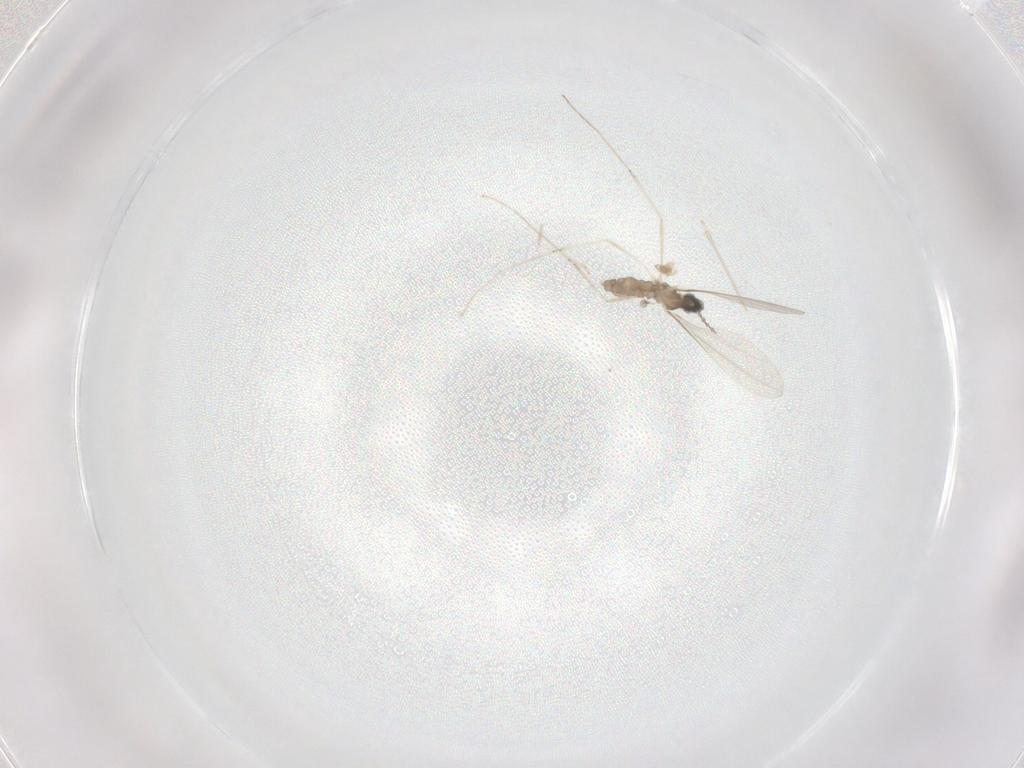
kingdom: Animalia
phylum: Arthropoda
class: Insecta
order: Diptera
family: Cecidomyiidae
